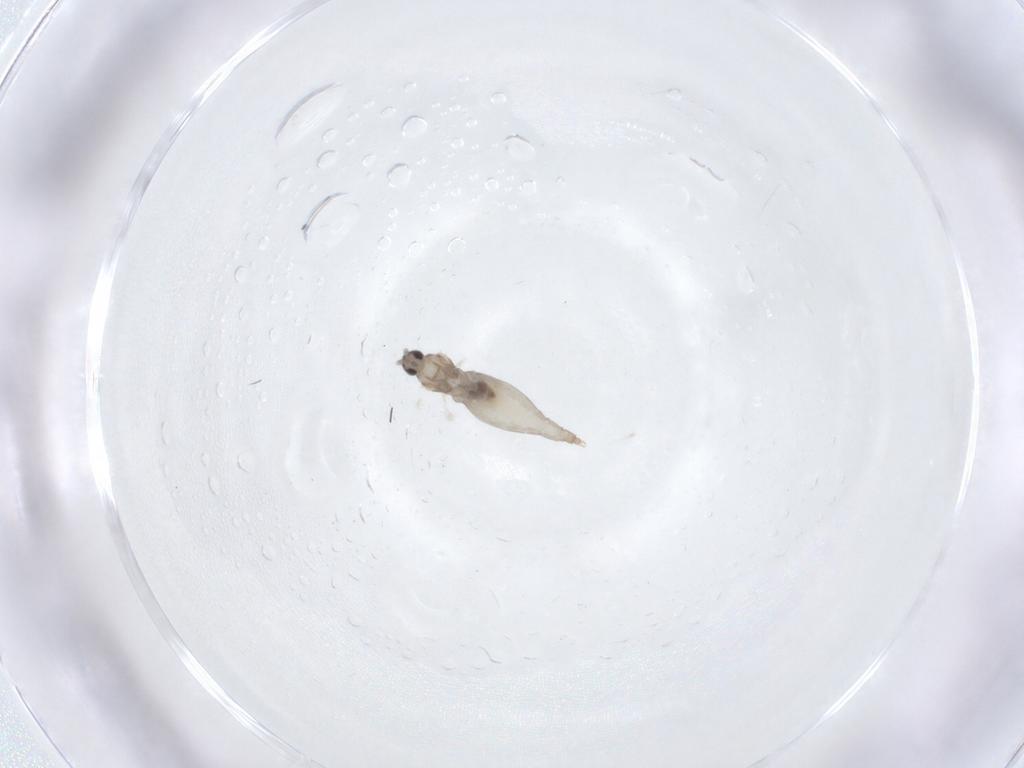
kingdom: Animalia
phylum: Arthropoda
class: Insecta
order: Diptera
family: Cecidomyiidae
